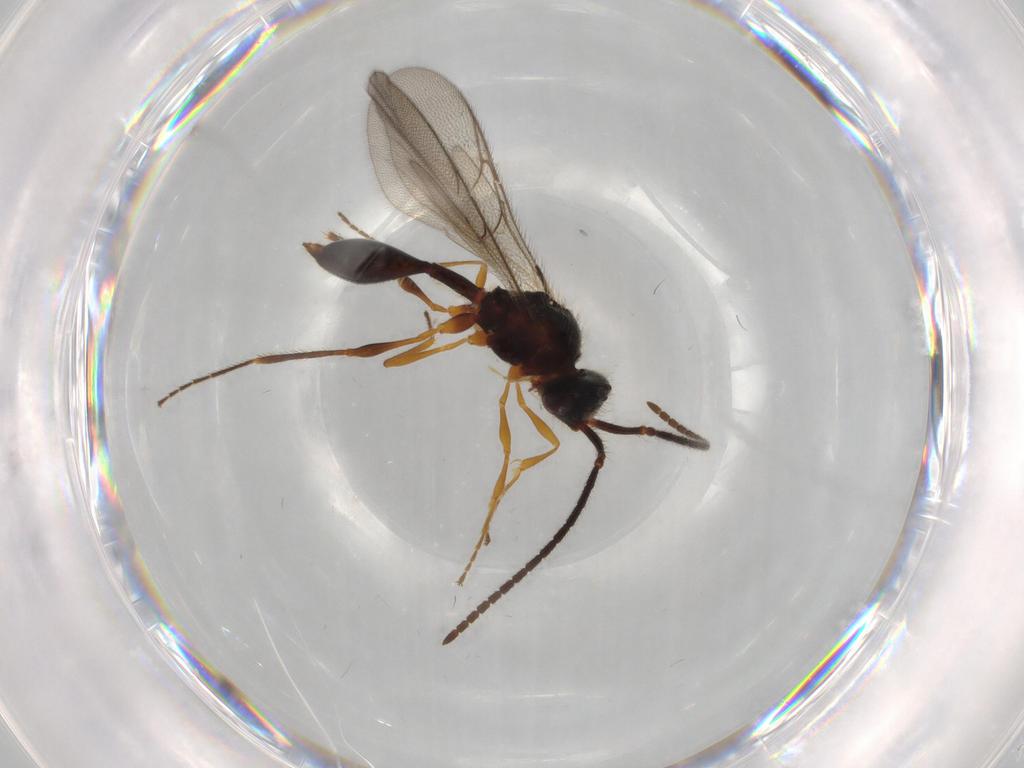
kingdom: Animalia
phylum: Arthropoda
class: Insecta
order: Hymenoptera
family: Diapriidae
